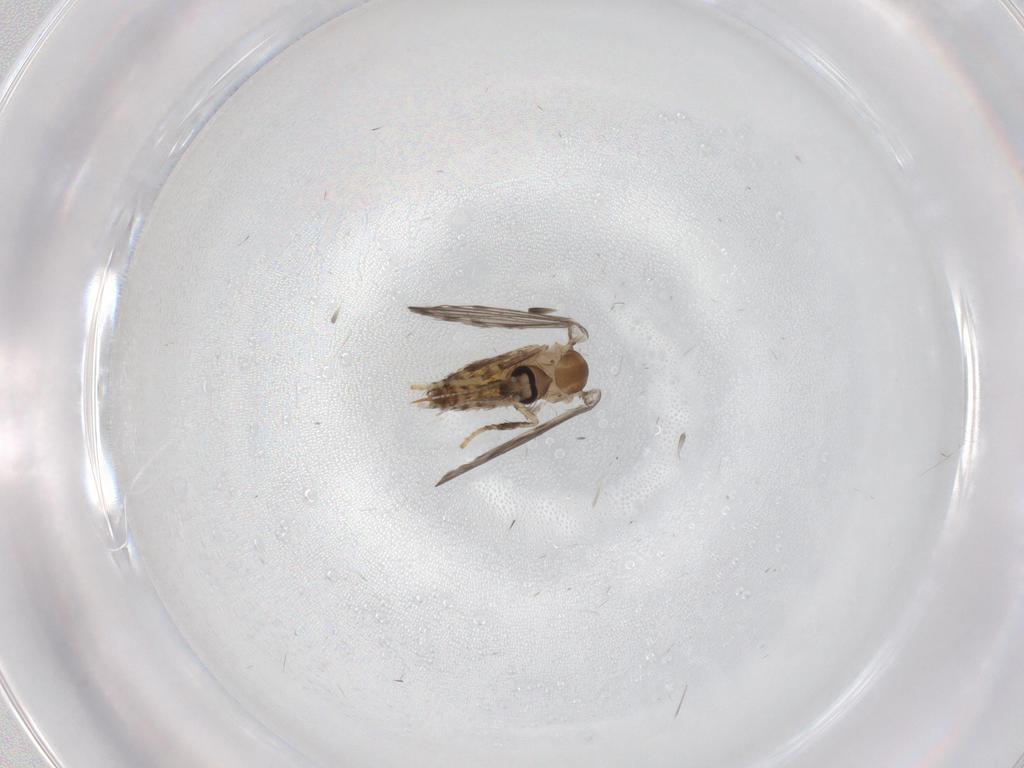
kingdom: Animalia
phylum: Arthropoda
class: Insecta
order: Diptera
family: Psychodidae
